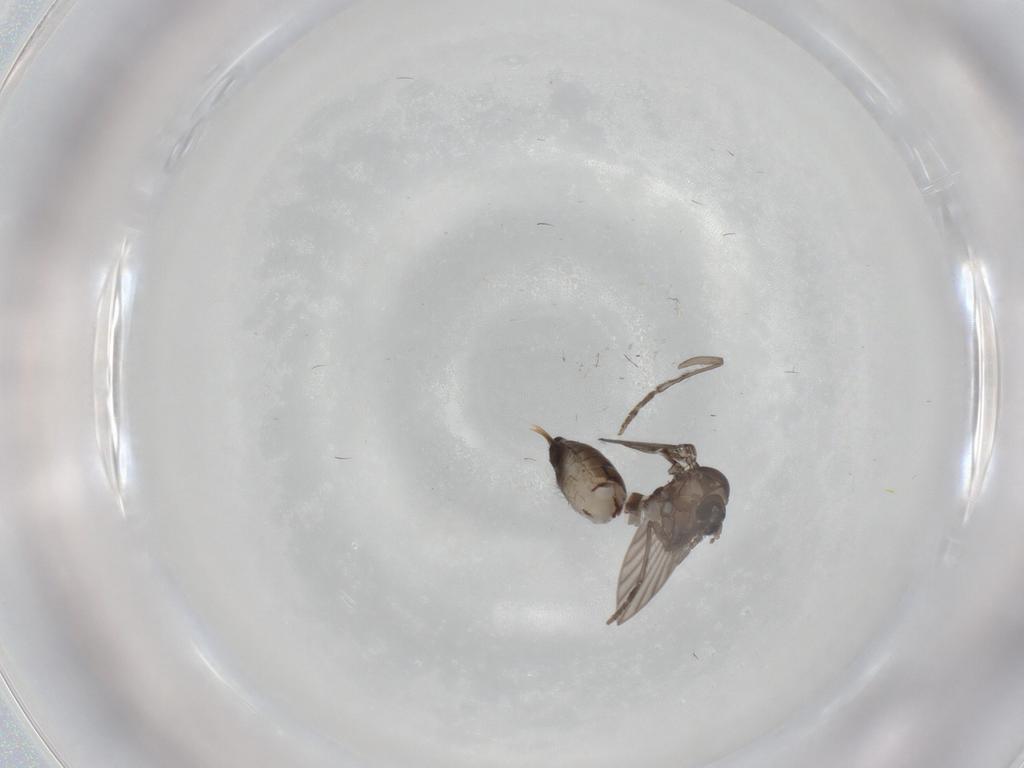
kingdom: Animalia
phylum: Arthropoda
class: Insecta
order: Diptera
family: Psychodidae
